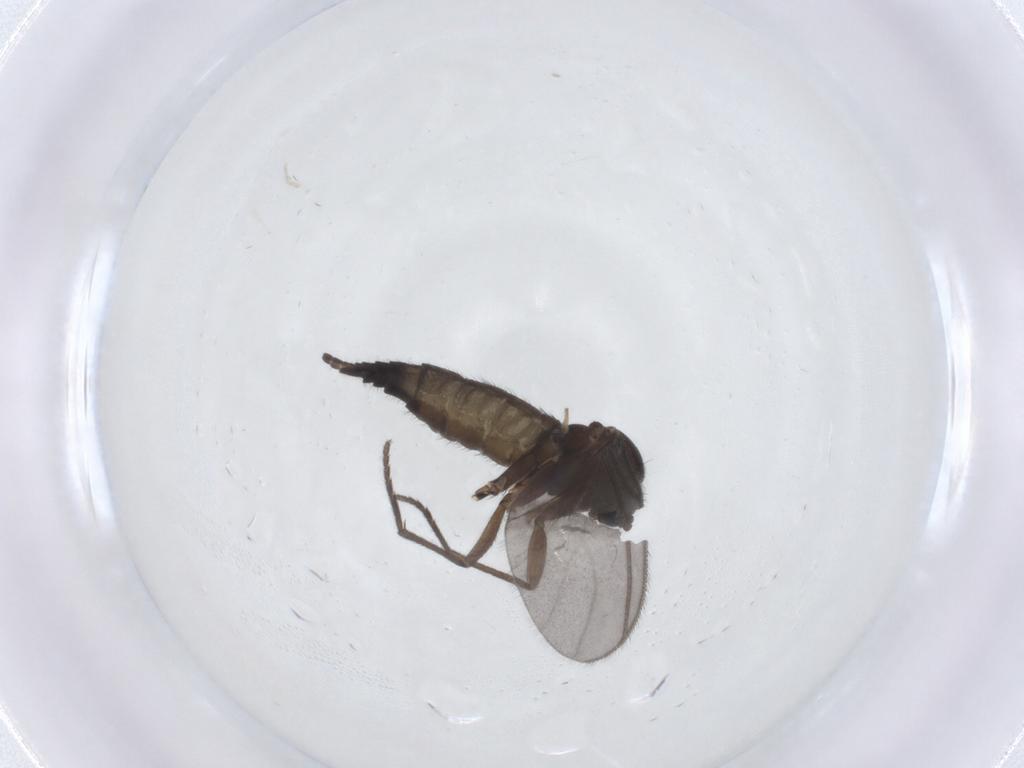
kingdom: Animalia
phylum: Arthropoda
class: Insecta
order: Diptera
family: Sciaridae
